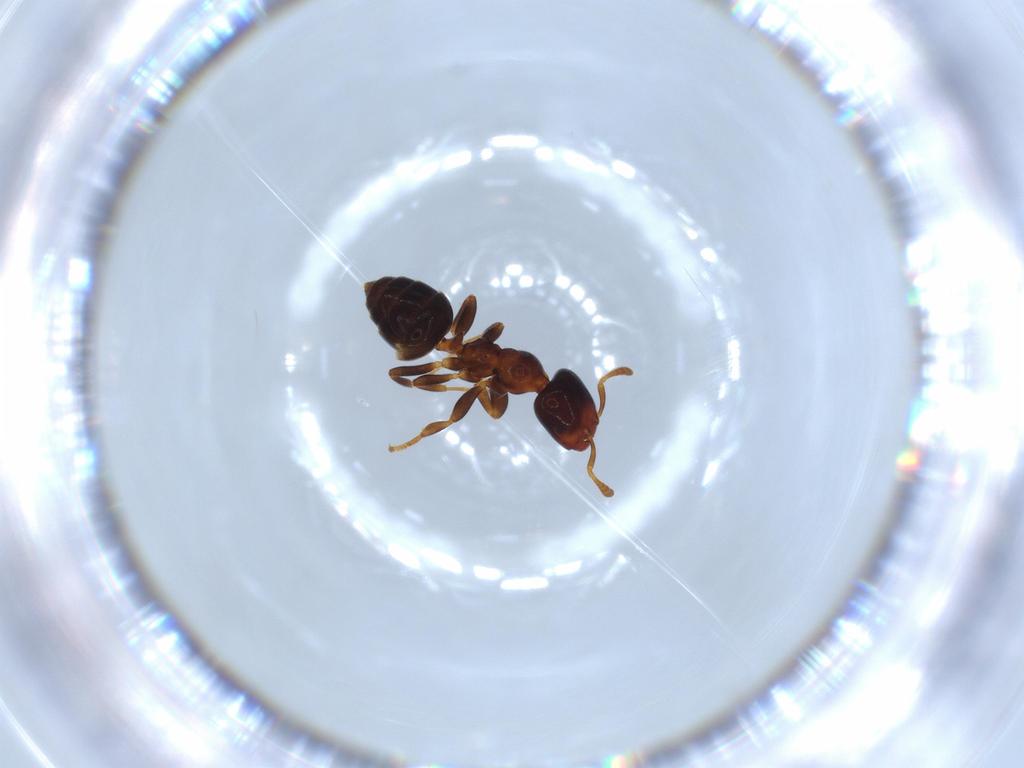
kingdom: Animalia
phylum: Arthropoda
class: Insecta
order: Hymenoptera
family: Formicidae
